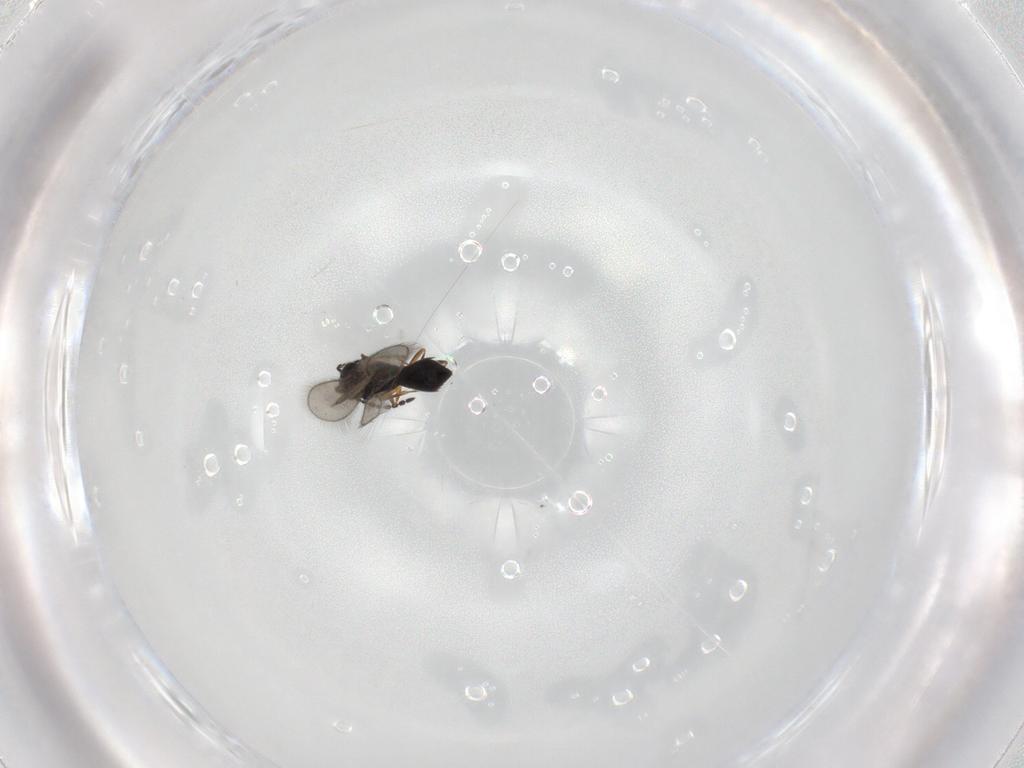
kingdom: Animalia
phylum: Arthropoda
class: Insecta
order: Hymenoptera
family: Scelionidae
